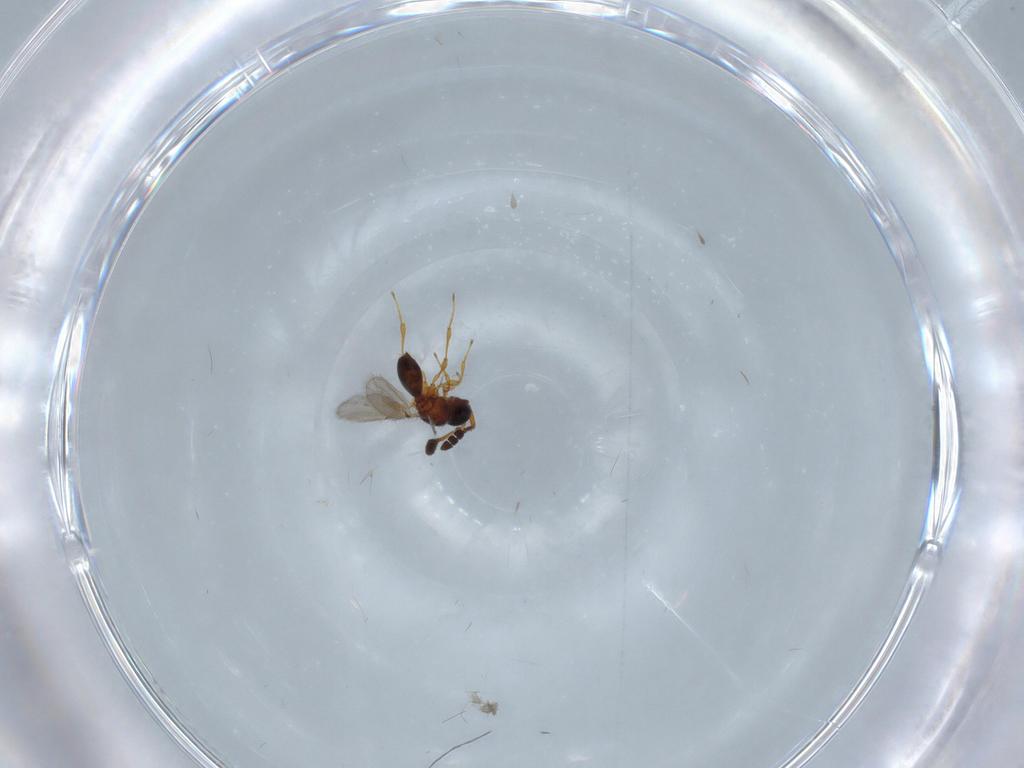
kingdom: Animalia
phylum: Arthropoda
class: Insecta
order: Hymenoptera
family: Diapriidae
